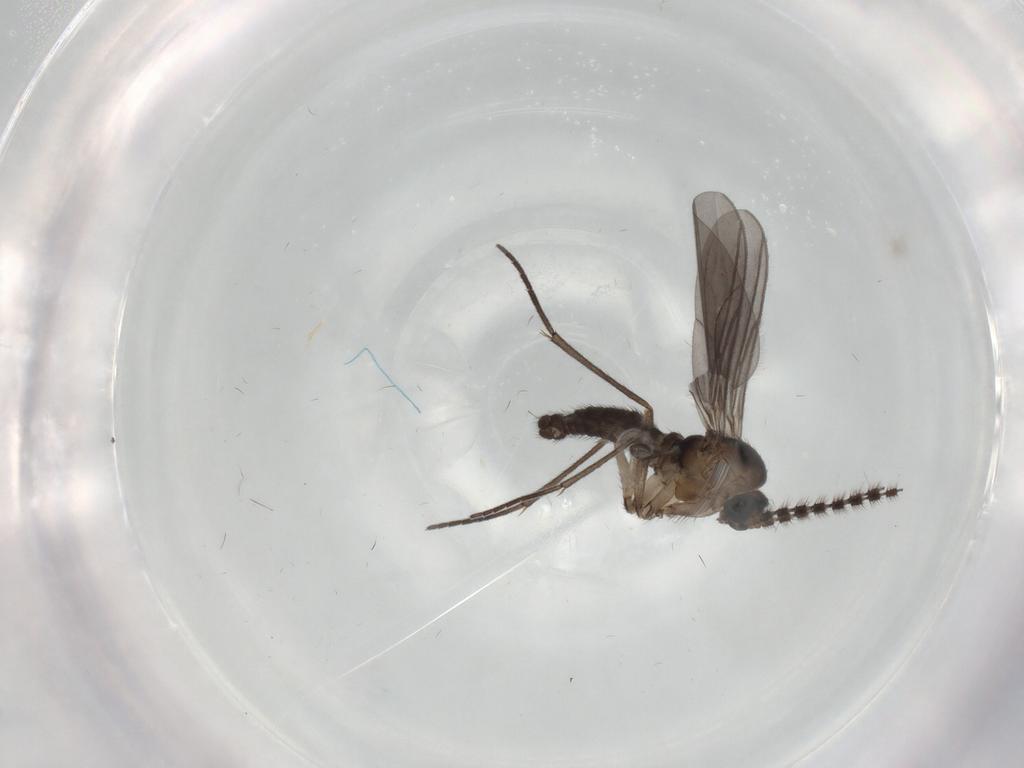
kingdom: Animalia
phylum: Arthropoda
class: Insecta
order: Diptera
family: Sciaridae
